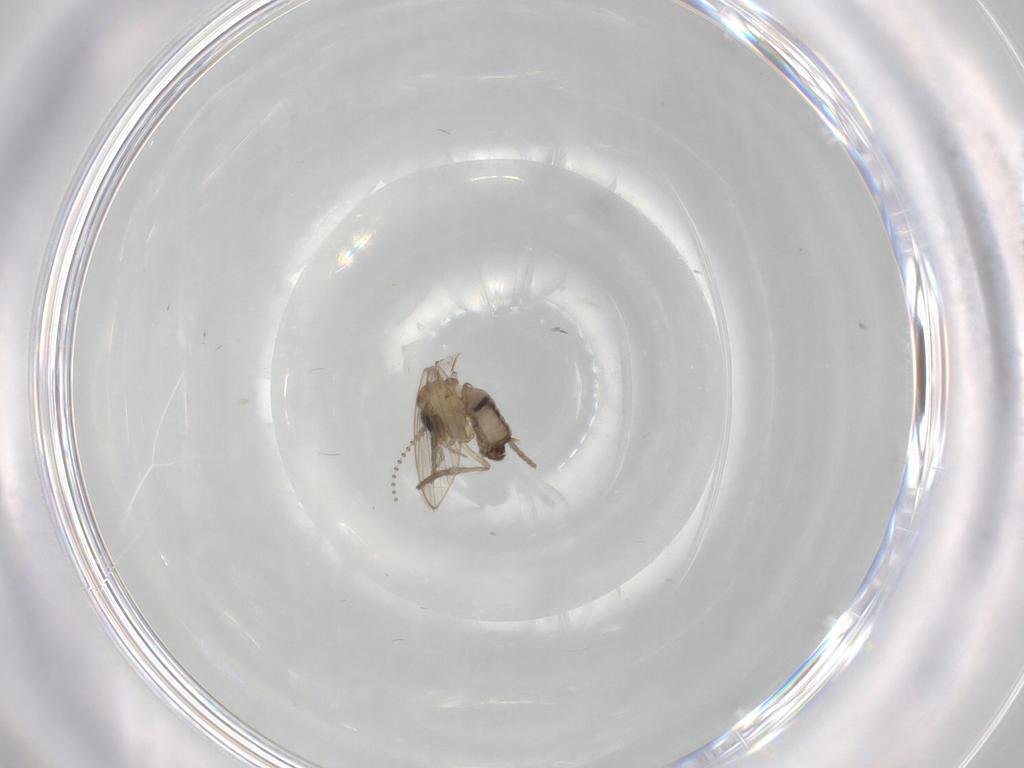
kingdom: Animalia
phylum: Arthropoda
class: Insecta
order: Diptera
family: Psychodidae
